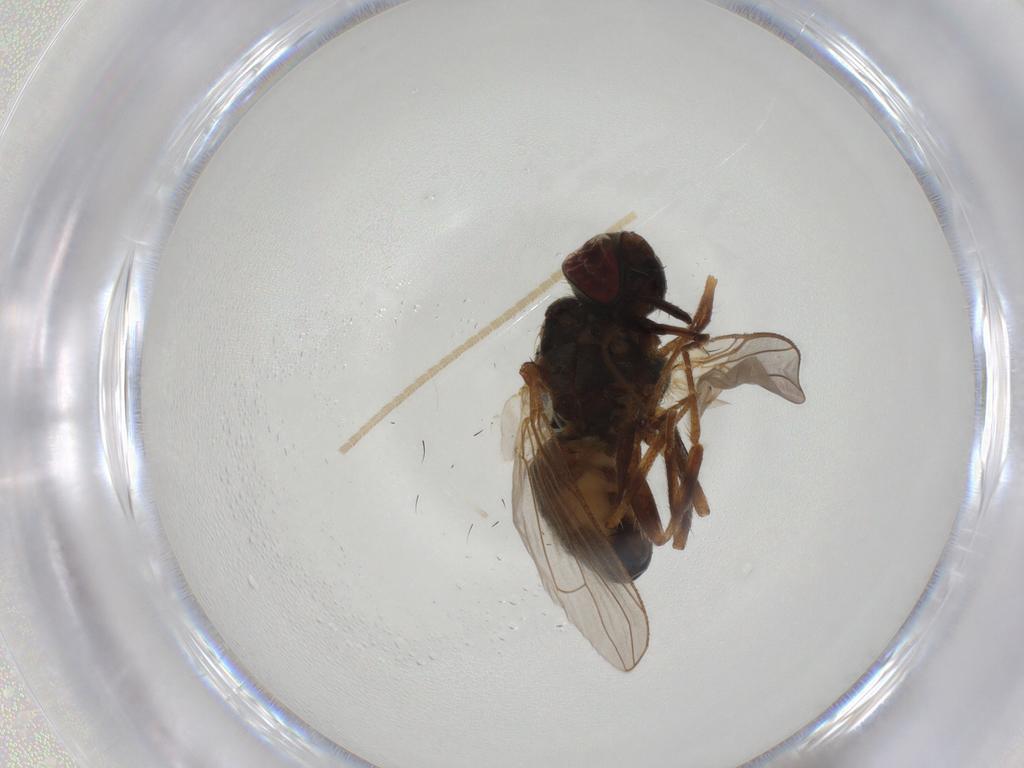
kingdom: Animalia
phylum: Arthropoda
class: Insecta
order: Diptera
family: Muscidae
